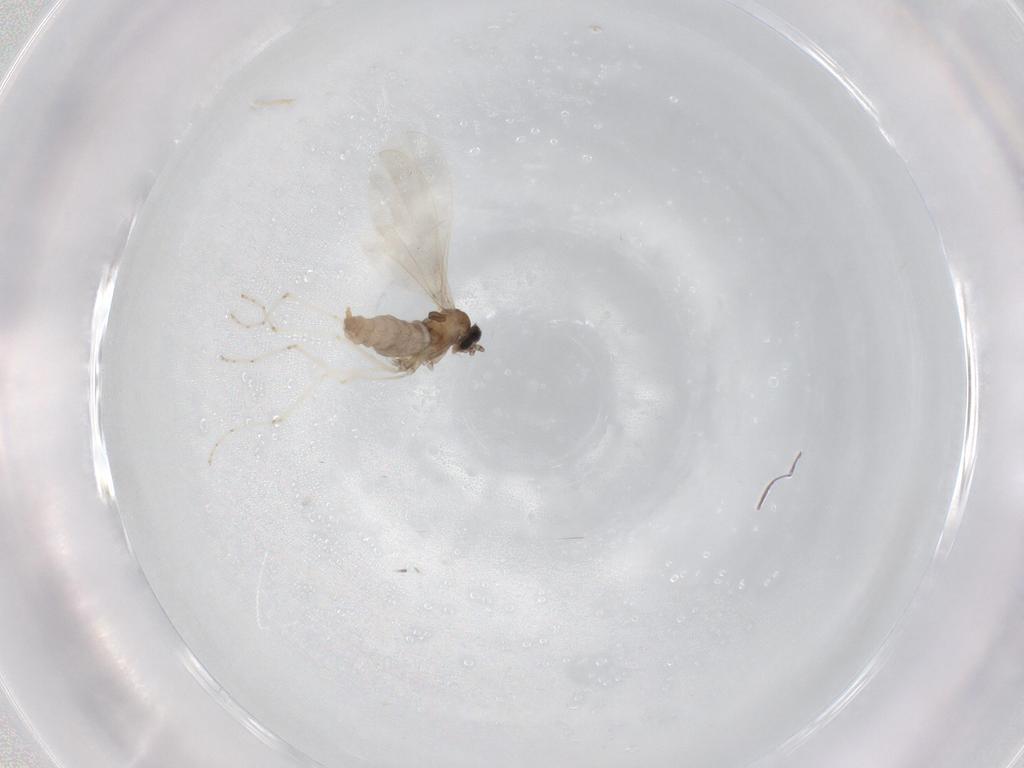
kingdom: Animalia
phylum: Arthropoda
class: Insecta
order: Diptera
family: Cecidomyiidae
